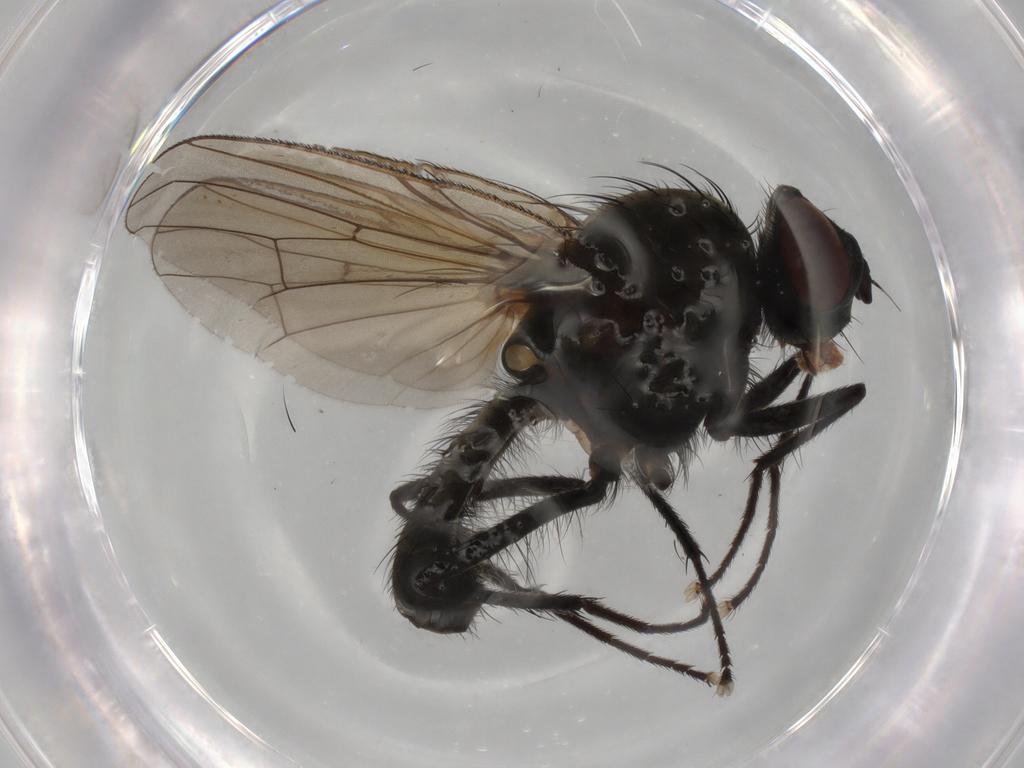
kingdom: Animalia
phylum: Arthropoda
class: Insecta
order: Diptera
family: Anthomyiidae
